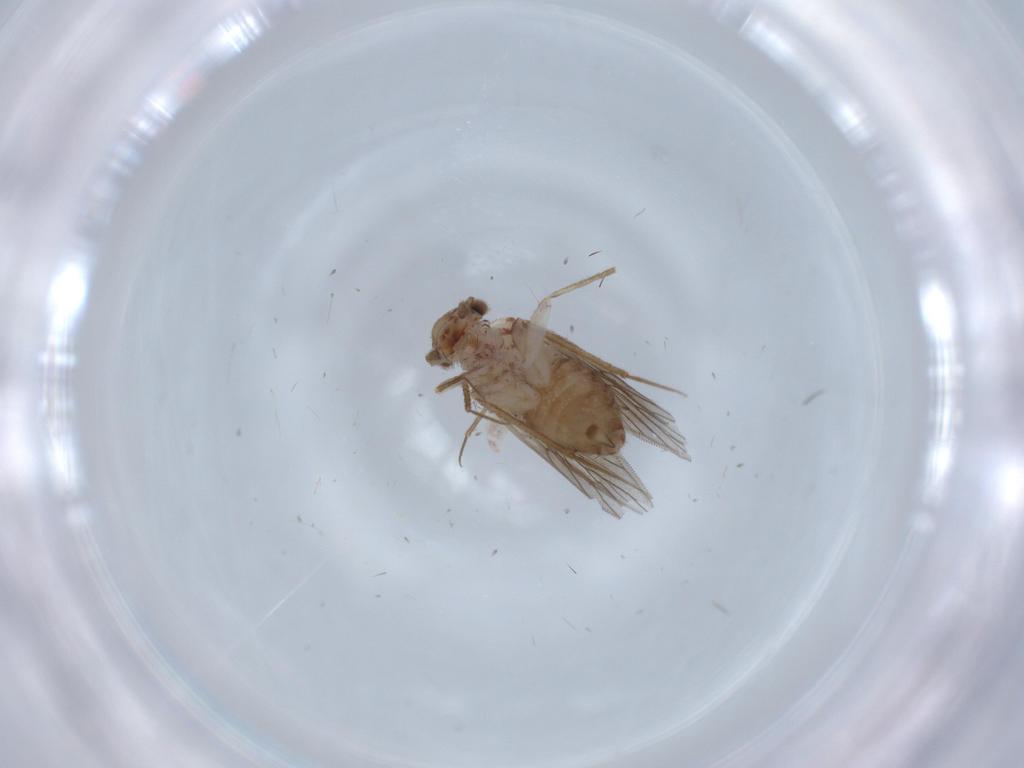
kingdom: Animalia
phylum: Arthropoda
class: Insecta
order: Psocodea
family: Lepidopsocidae
